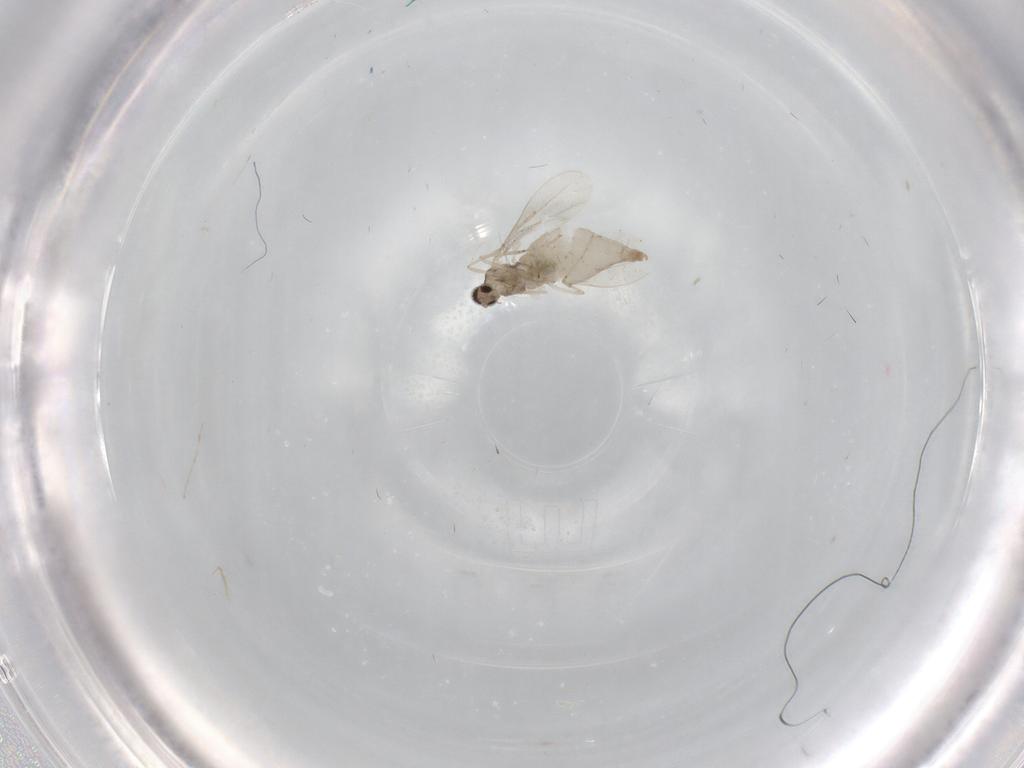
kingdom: Animalia
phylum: Arthropoda
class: Insecta
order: Diptera
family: Cecidomyiidae
